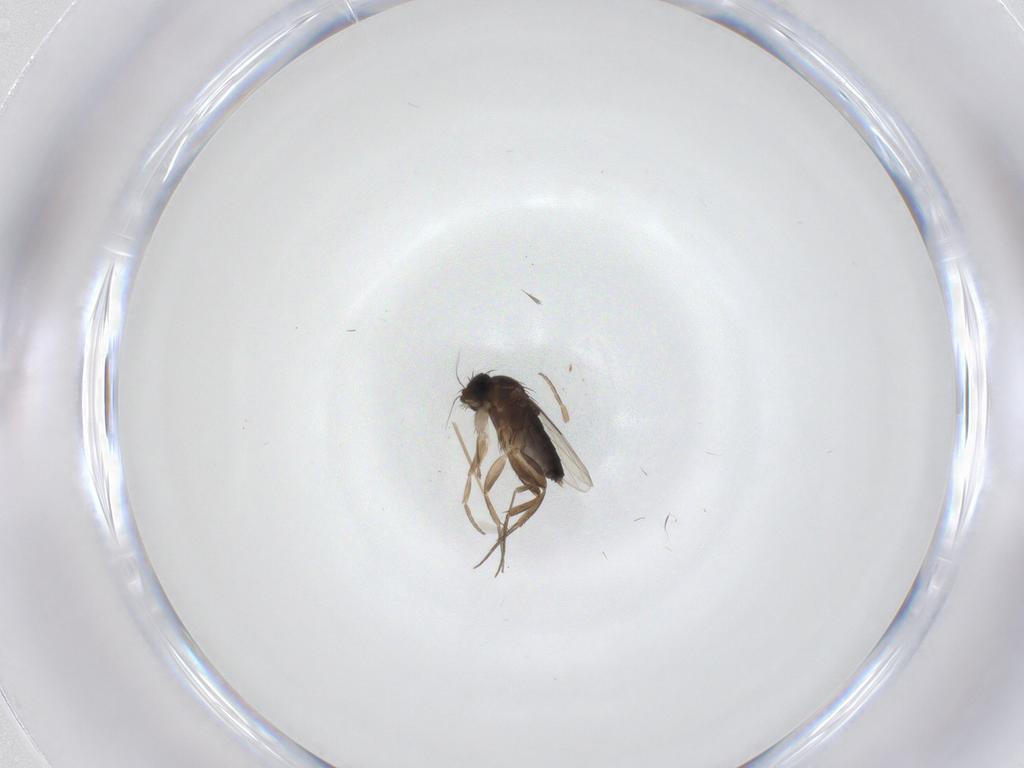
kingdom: Animalia
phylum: Arthropoda
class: Insecta
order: Diptera
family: Phoridae
